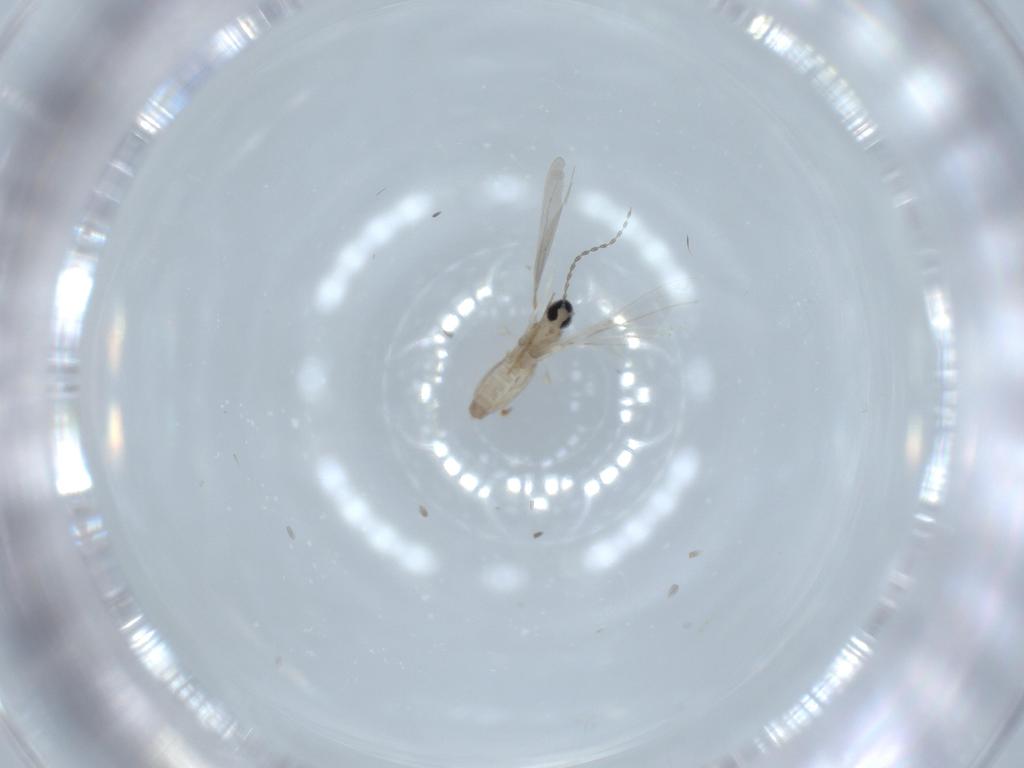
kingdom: Animalia
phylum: Arthropoda
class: Insecta
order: Diptera
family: Cecidomyiidae
